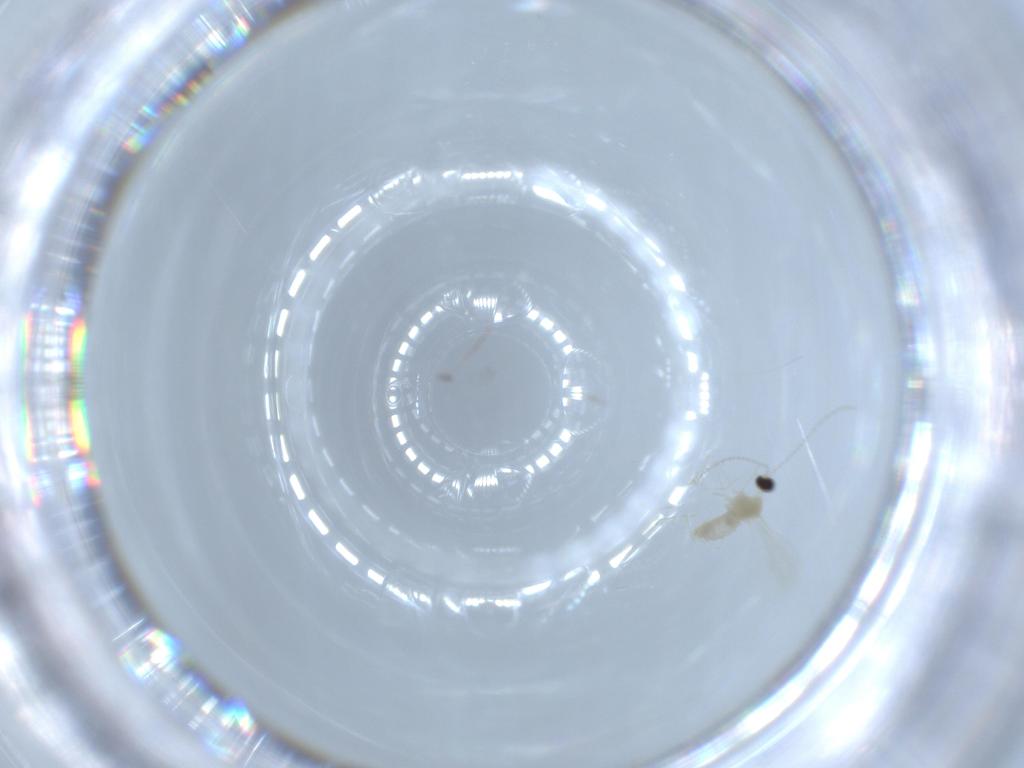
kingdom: Animalia
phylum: Arthropoda
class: Insecta
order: Diptera
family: Cecidomyiidae
